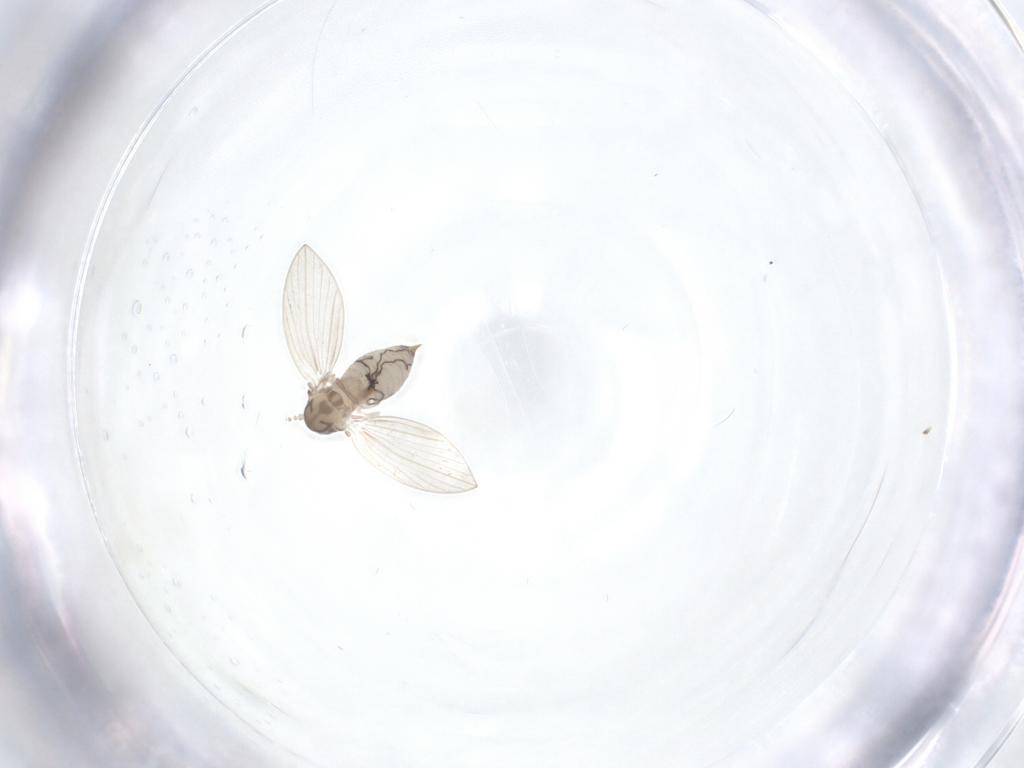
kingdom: Animalia
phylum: Arthropoda
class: Insecta
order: Diptera
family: Psychodidae
